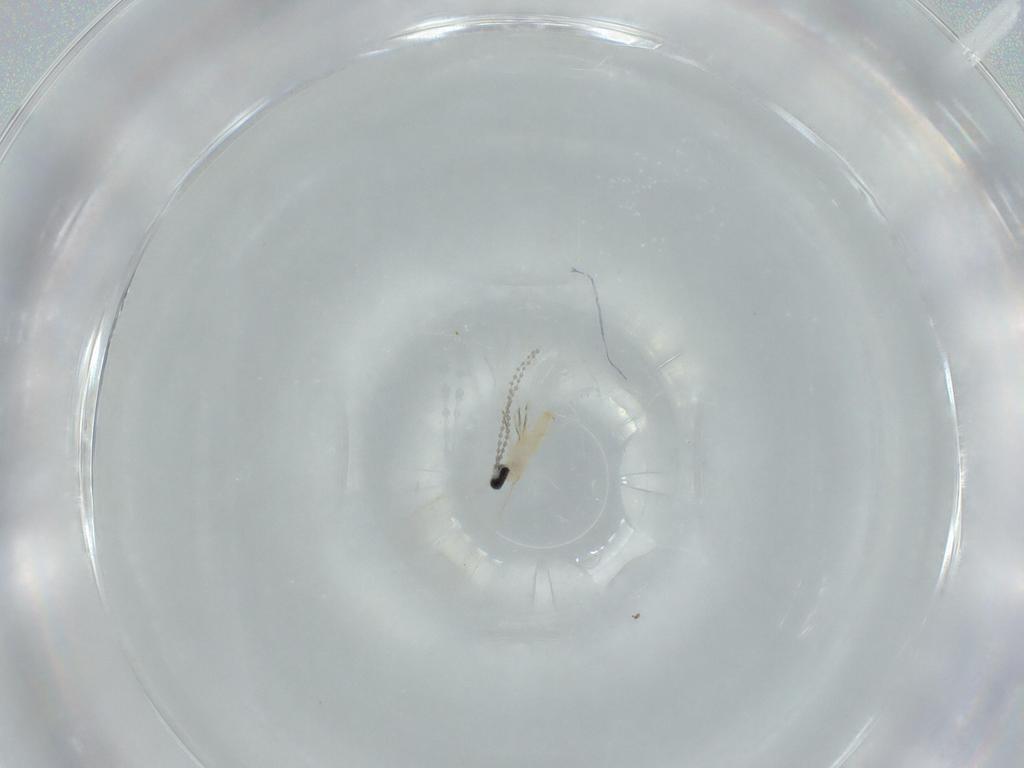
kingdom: Animalia
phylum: Arthropoda
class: Insecta
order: Diptera
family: Cecidomyiidae
